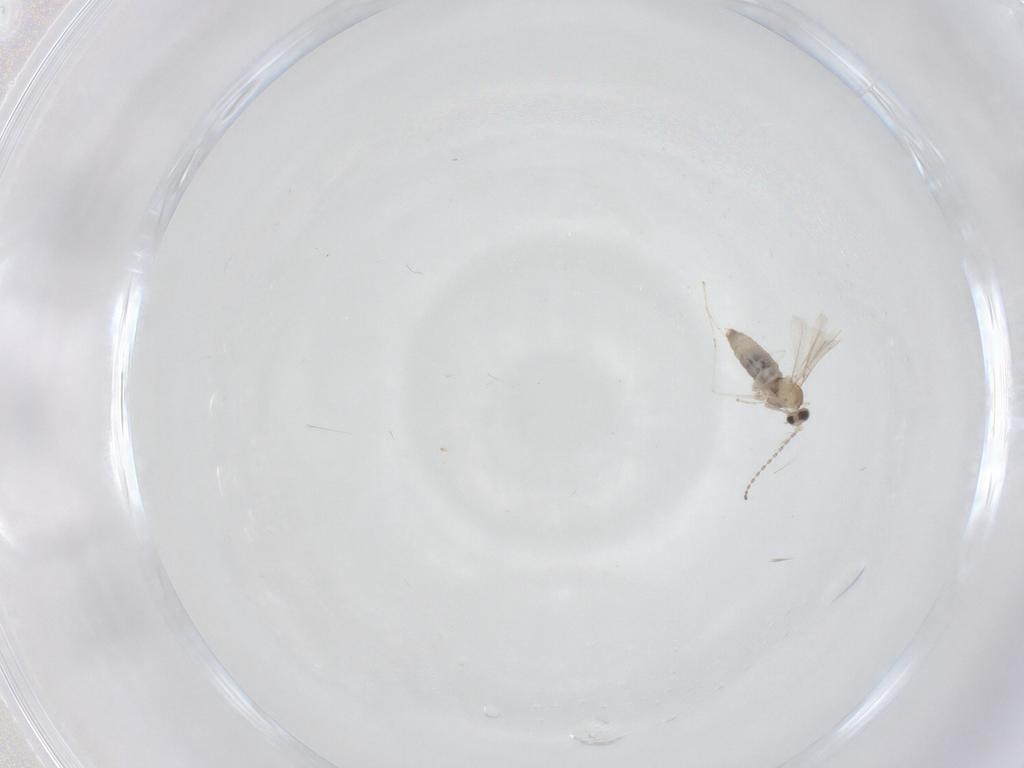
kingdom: Animalia
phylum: Arthropoda
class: Insecta
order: Diptera
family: Cecidomyiidae
